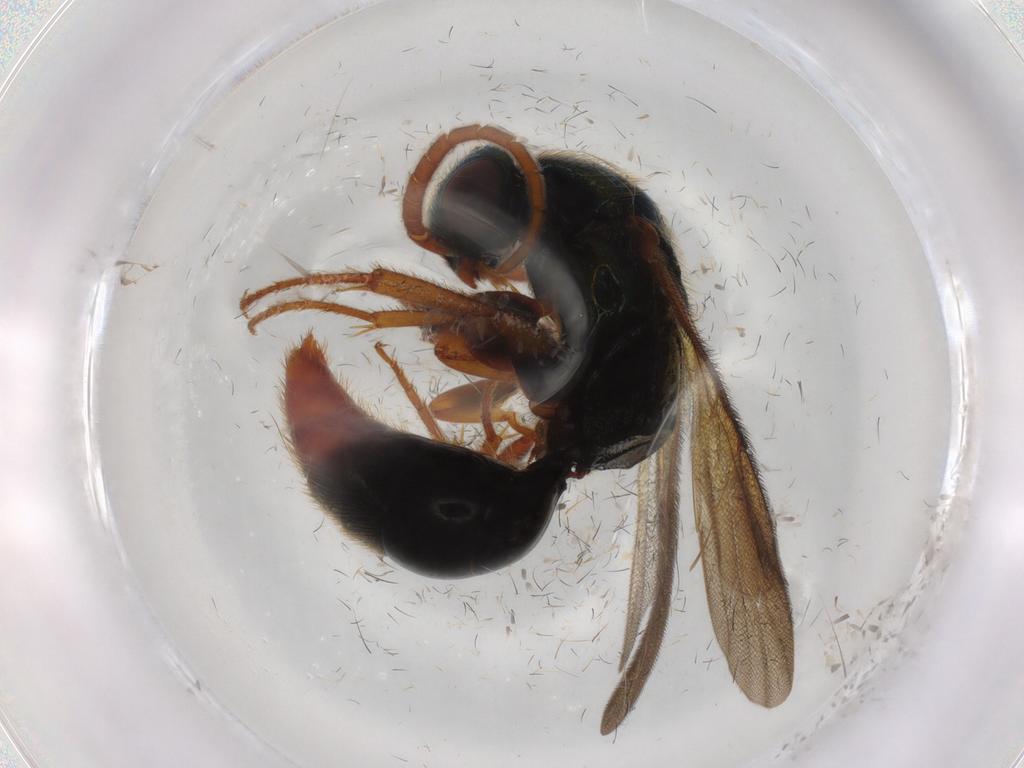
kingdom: Animalia
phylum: Arthropoda
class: Insecta
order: Hymenoptera
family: Bethylidae
